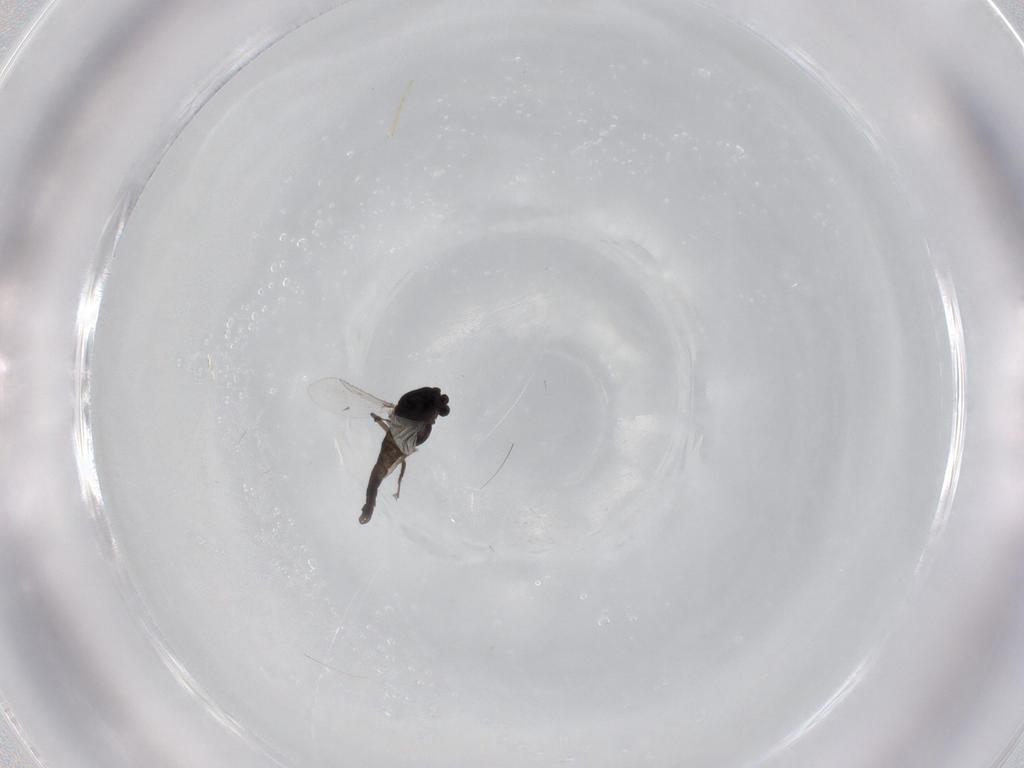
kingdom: Animalia
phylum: Arthropoda
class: Insecta
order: Diptera
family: Chironomidae
